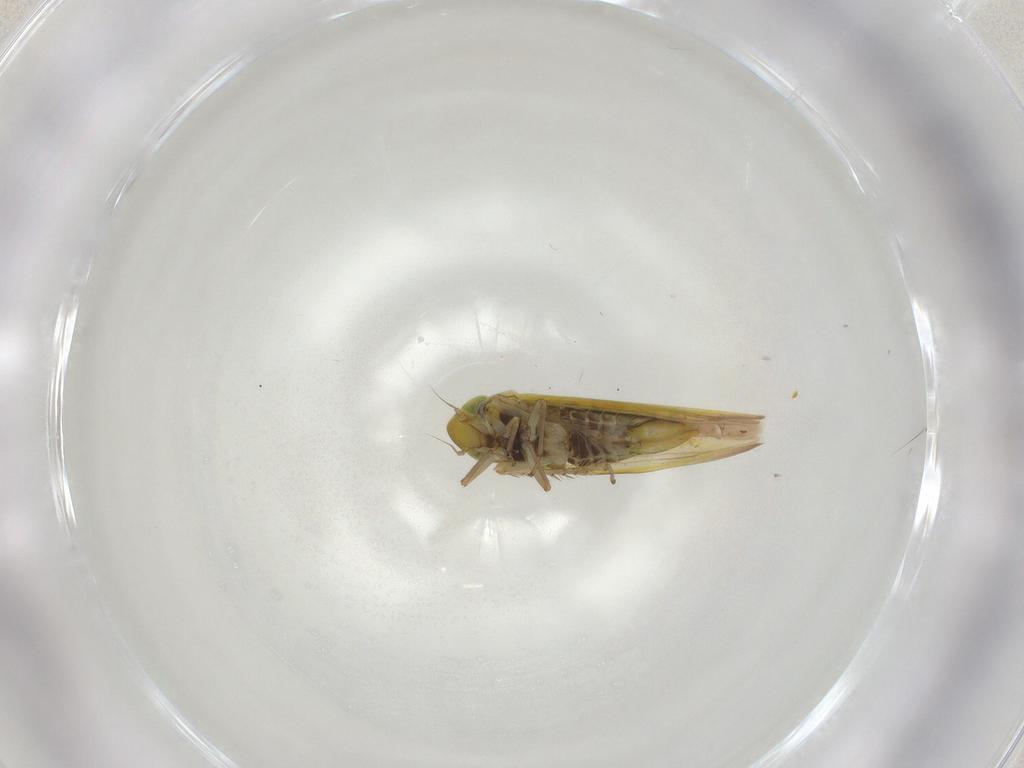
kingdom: Animalia
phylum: Arthropoda
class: Insecta
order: Hemiptera
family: Cicadellidae
